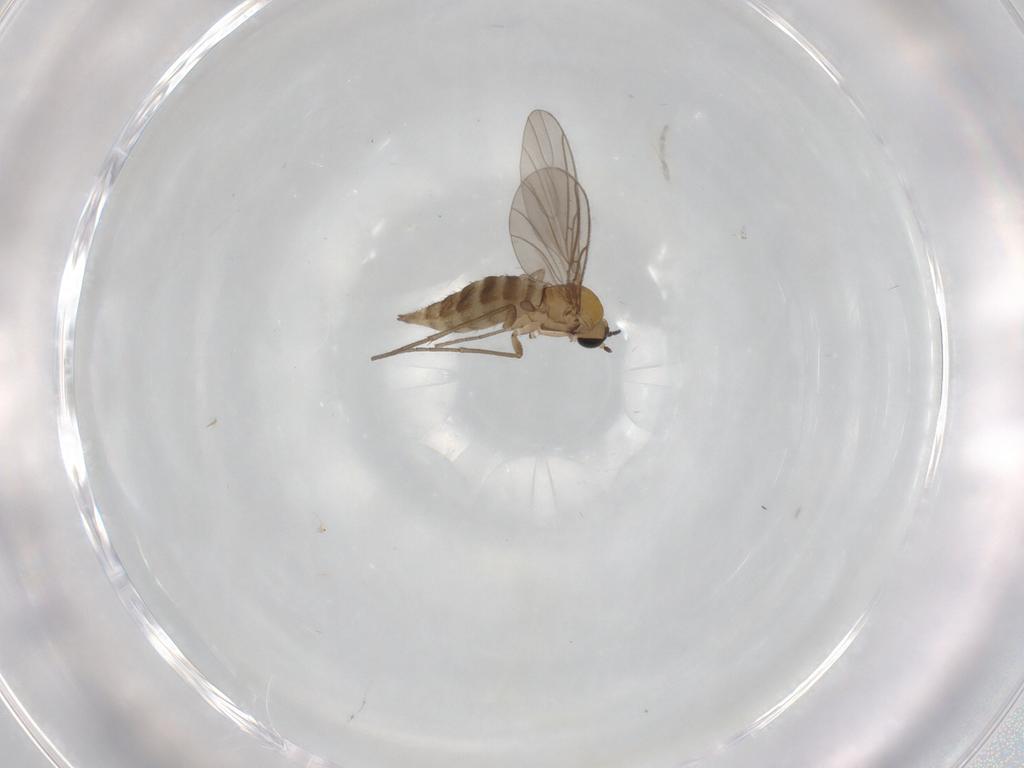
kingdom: Animalia
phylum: Arthropoda
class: Insecta
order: Diptera
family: Sciaridae
